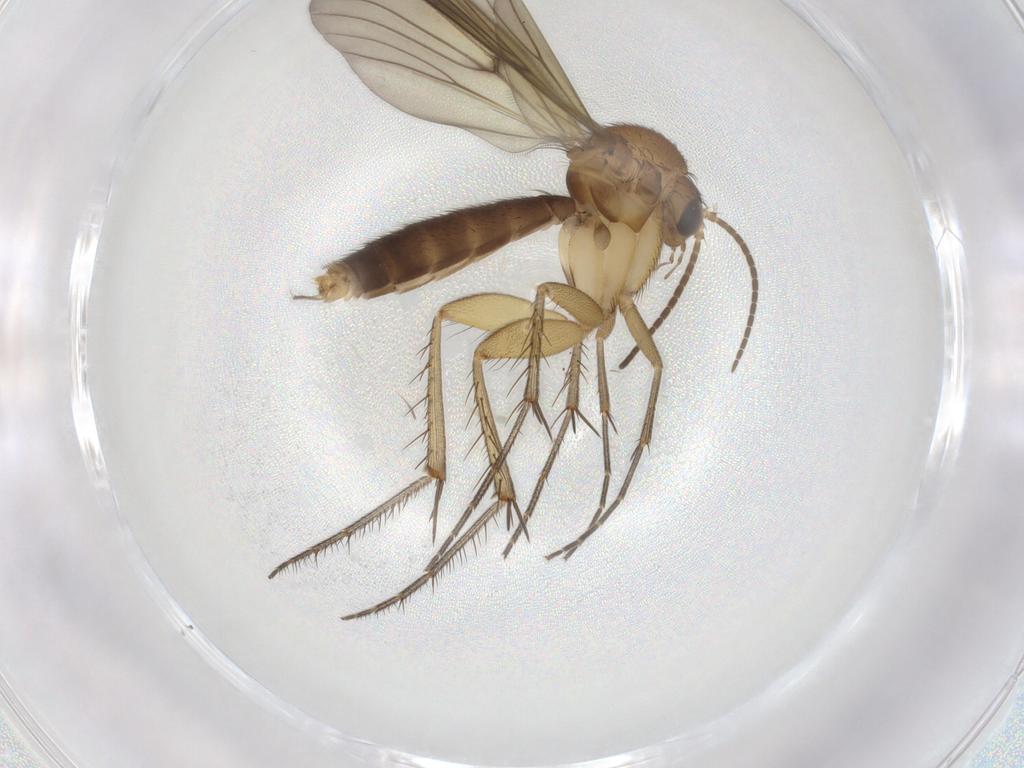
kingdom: Animalia
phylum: Arthropoda
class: Insecta
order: Diptera
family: Mycetophilidae
